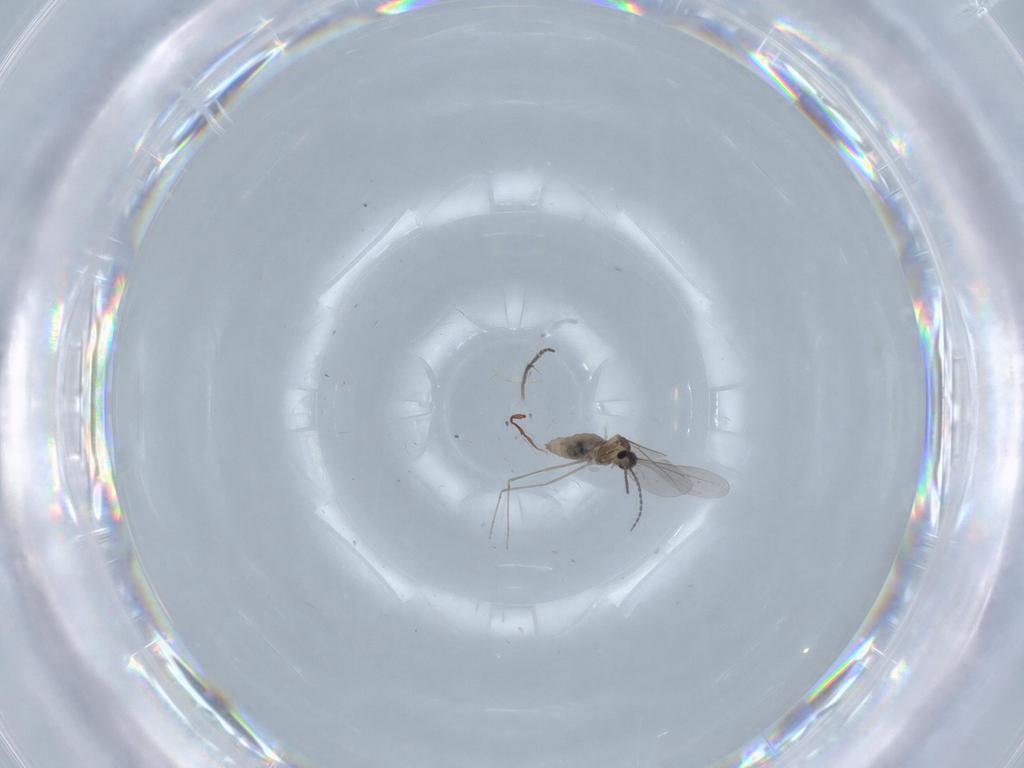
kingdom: Animalia
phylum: Arthropoda
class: Insecta
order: Diptera
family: Cecidomyiidae
